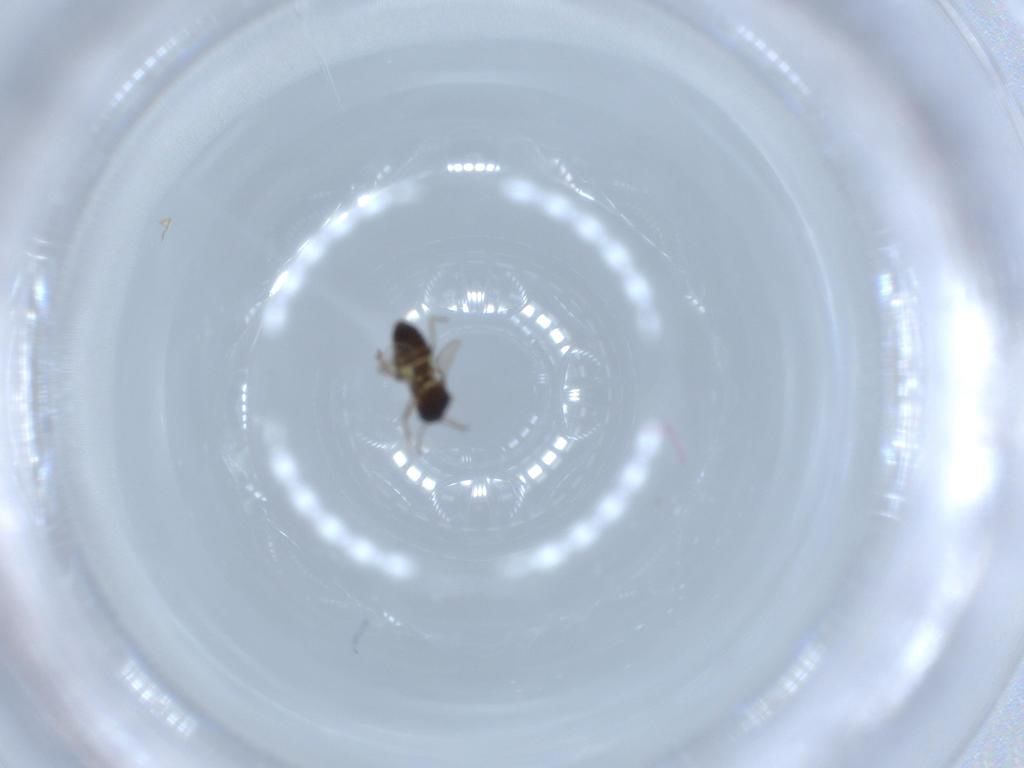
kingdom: Animalia
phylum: Arthropoda
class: Insecta
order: Diptera
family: Ceratopogonidae
